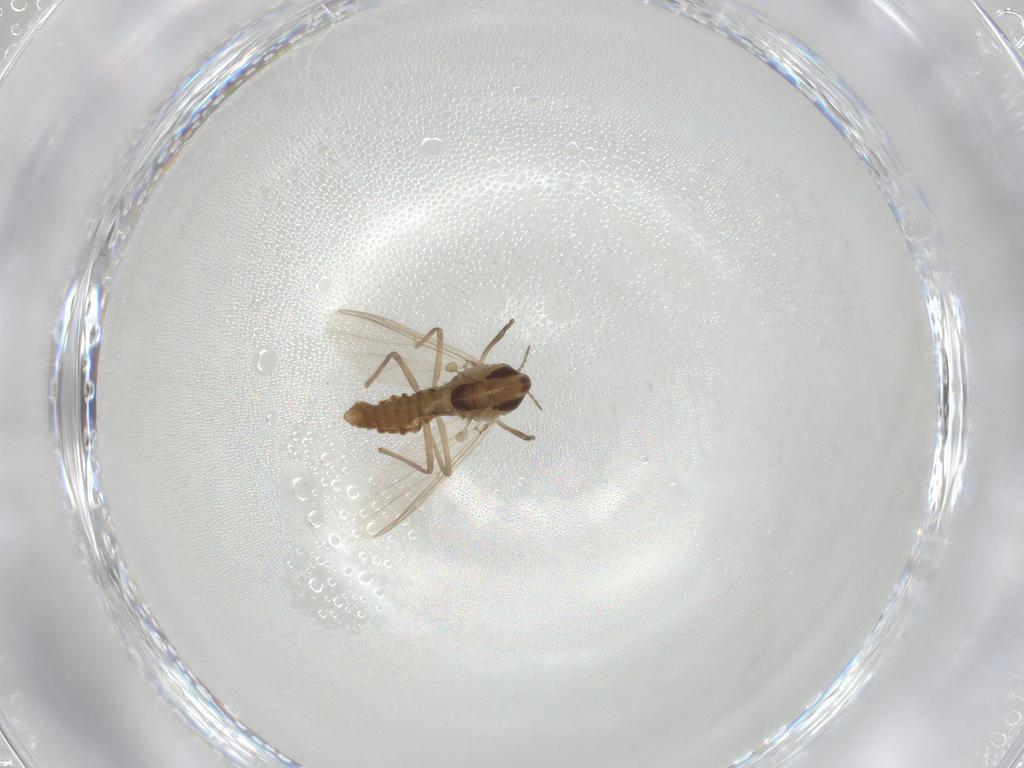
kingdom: Animalia
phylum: Arthropoda
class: Insecta
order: Diptera
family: Chironomidae
